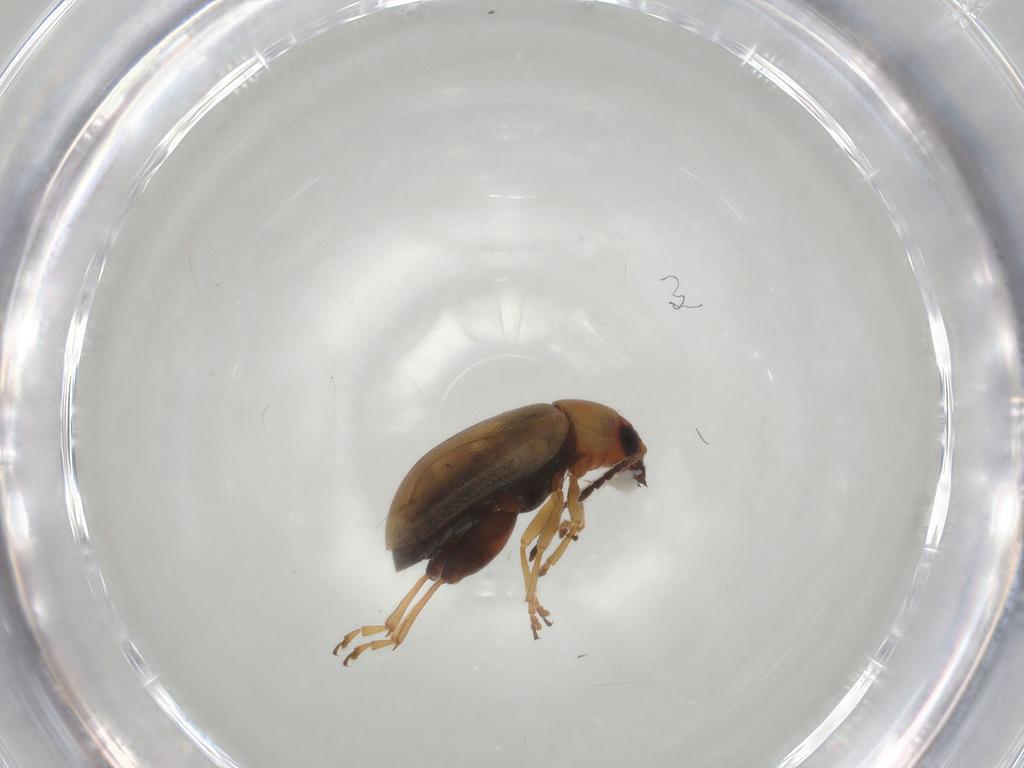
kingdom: Animalia
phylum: Arthropoda
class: Insecta
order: Coleoptera
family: Chrysomelidae
